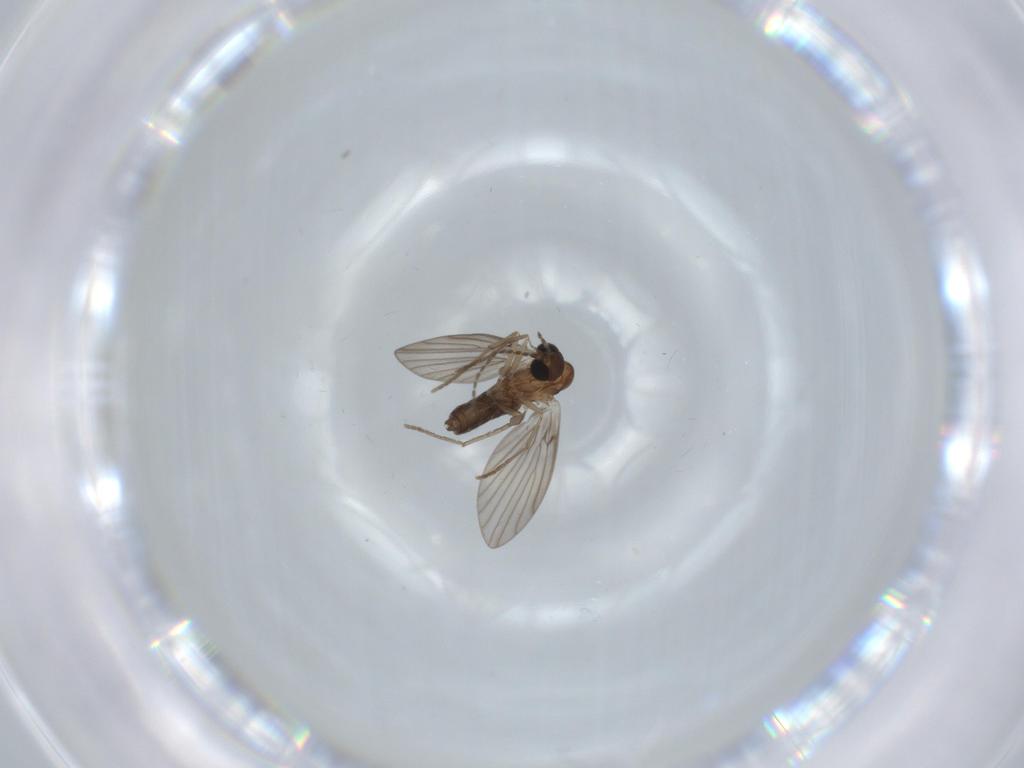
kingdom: Animalia
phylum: Arthropoda
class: Insecta
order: Diptera
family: Psychodidae
